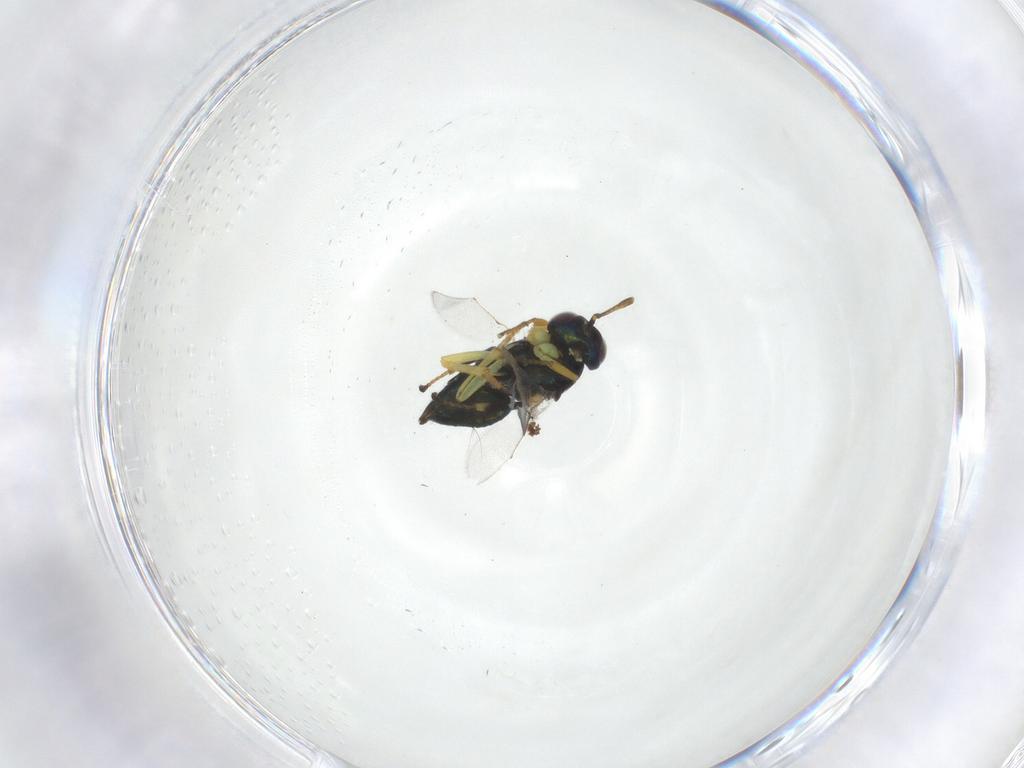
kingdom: Animalia
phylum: Arthropoda
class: Insecta
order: Hymenoptera
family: Encyrtidae
